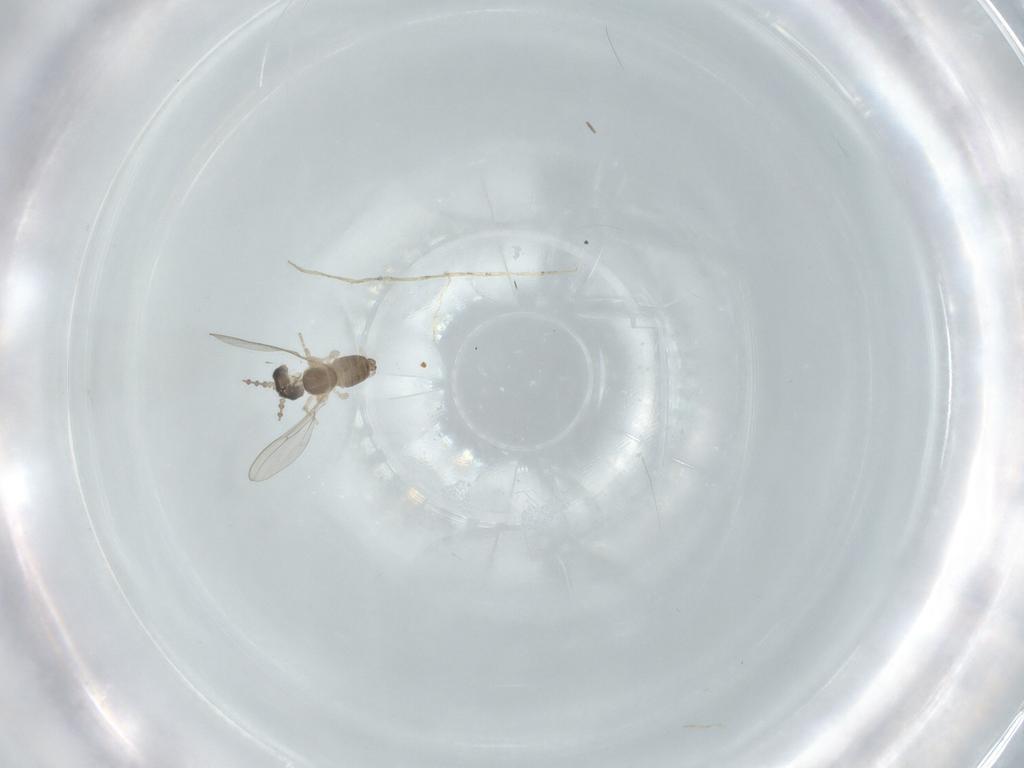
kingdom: Animalia
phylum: Arthropoda
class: Insecta
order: Diptera
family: Cecidomyiidae
